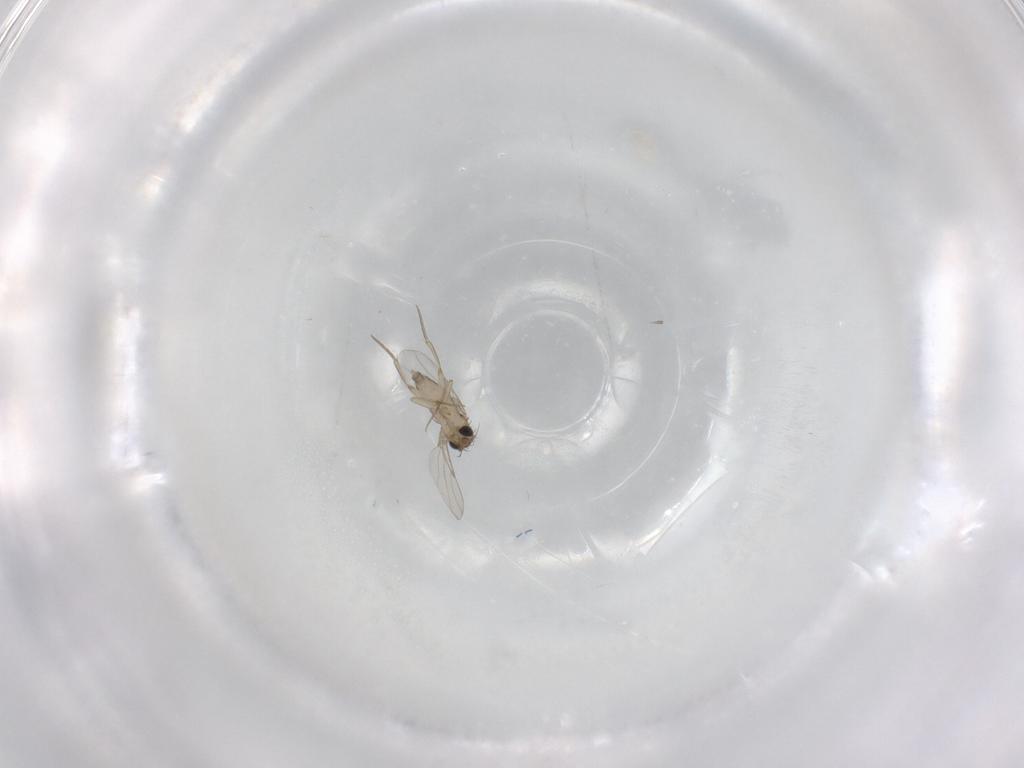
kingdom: Animalia
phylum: Arthropoda
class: Insecta
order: Diptera
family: Phoridae
